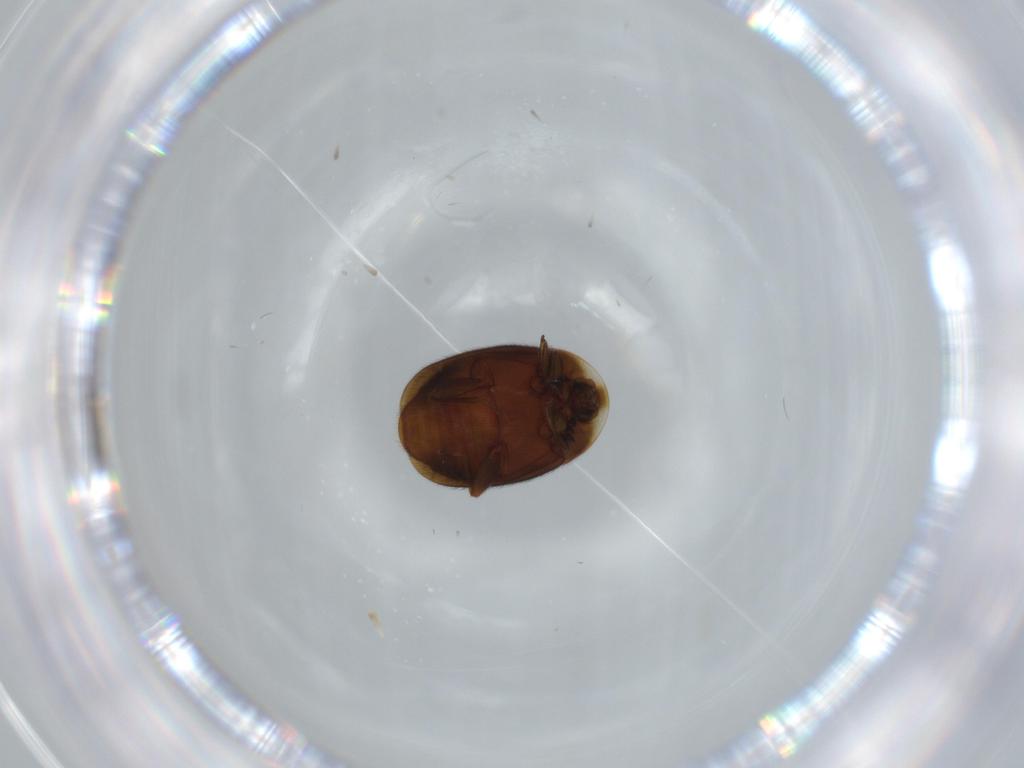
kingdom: Animalia
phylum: Arthropoda
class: Insecta
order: Coleoptera
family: Corylophidae
